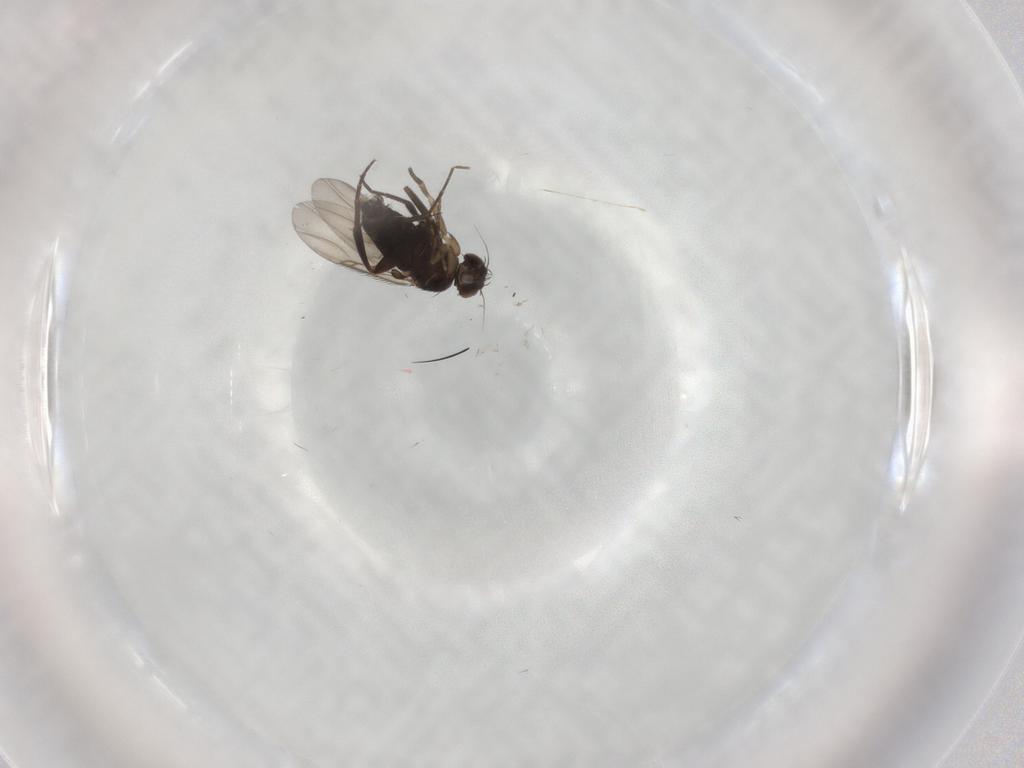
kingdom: Animalia
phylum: Arthropoda
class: Insecta
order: Diptera
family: Phoridae
